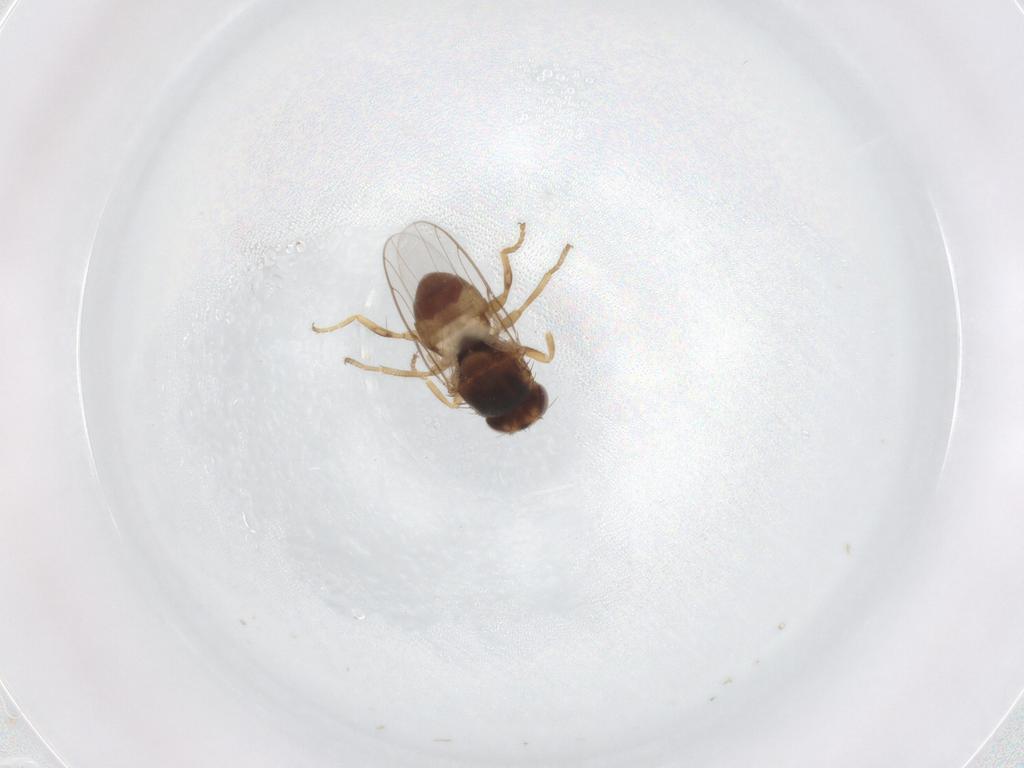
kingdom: Animalia
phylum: Arthropoda
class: Insecta
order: Diptera
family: Chloropidae
